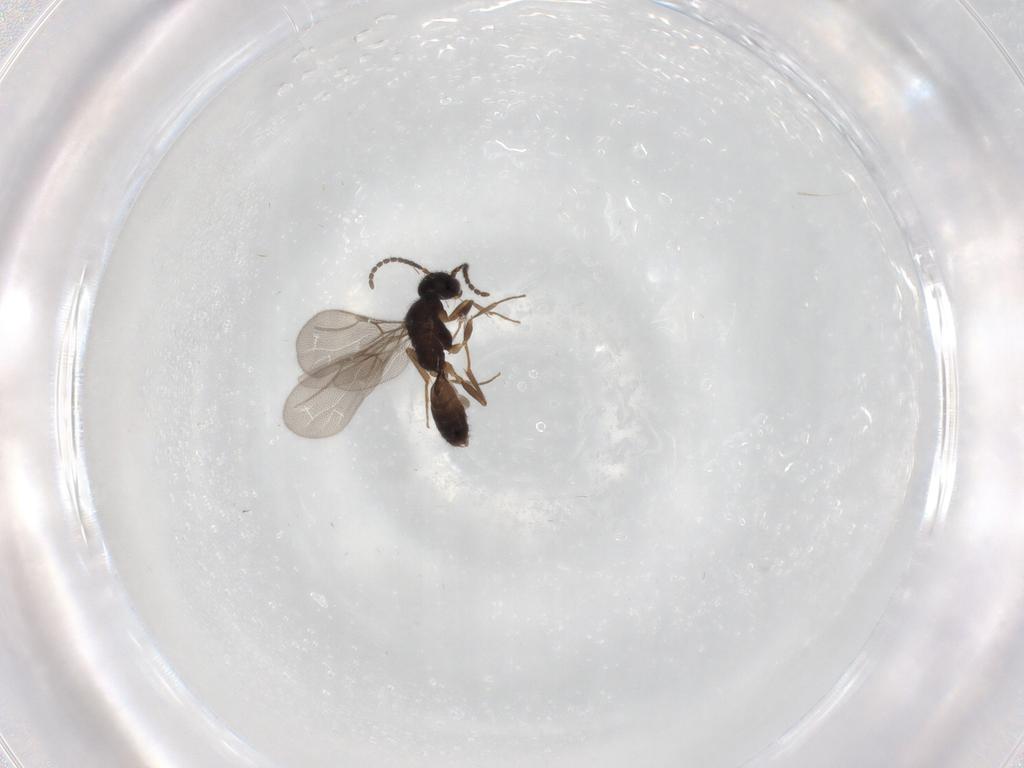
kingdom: Animalia
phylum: Arthropoda
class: Insecta
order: Hymenoptera
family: Bethylidae
